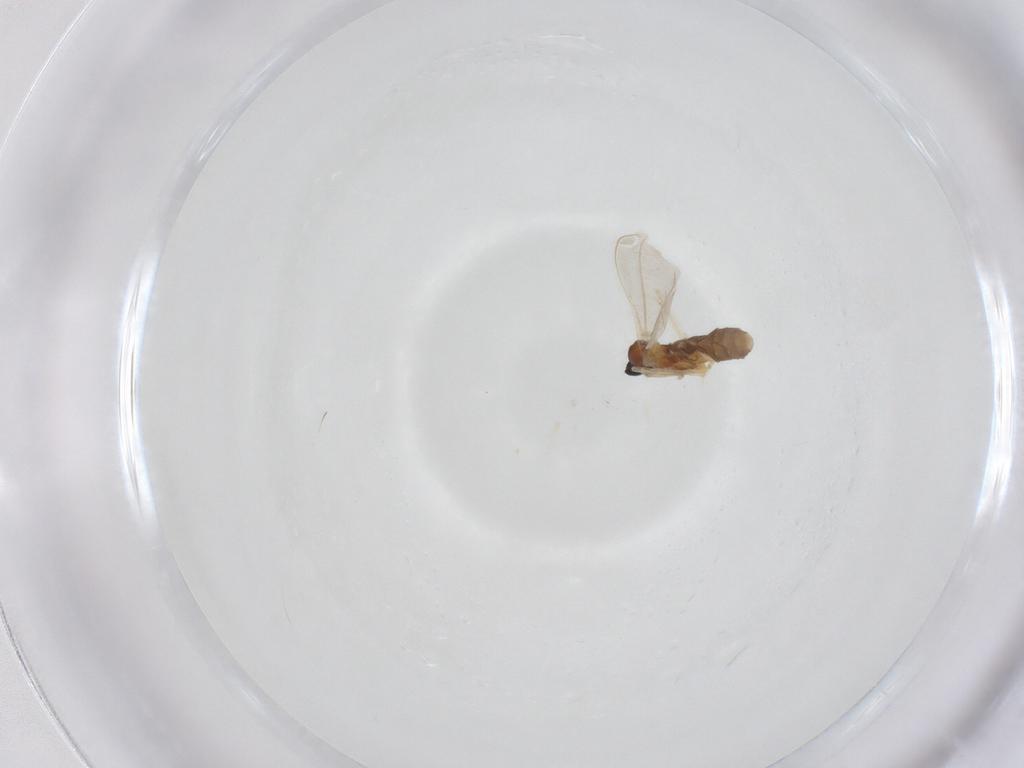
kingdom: Animalia
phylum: Arthropoda
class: Insecta
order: Diptera
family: Cecidomyiidae
